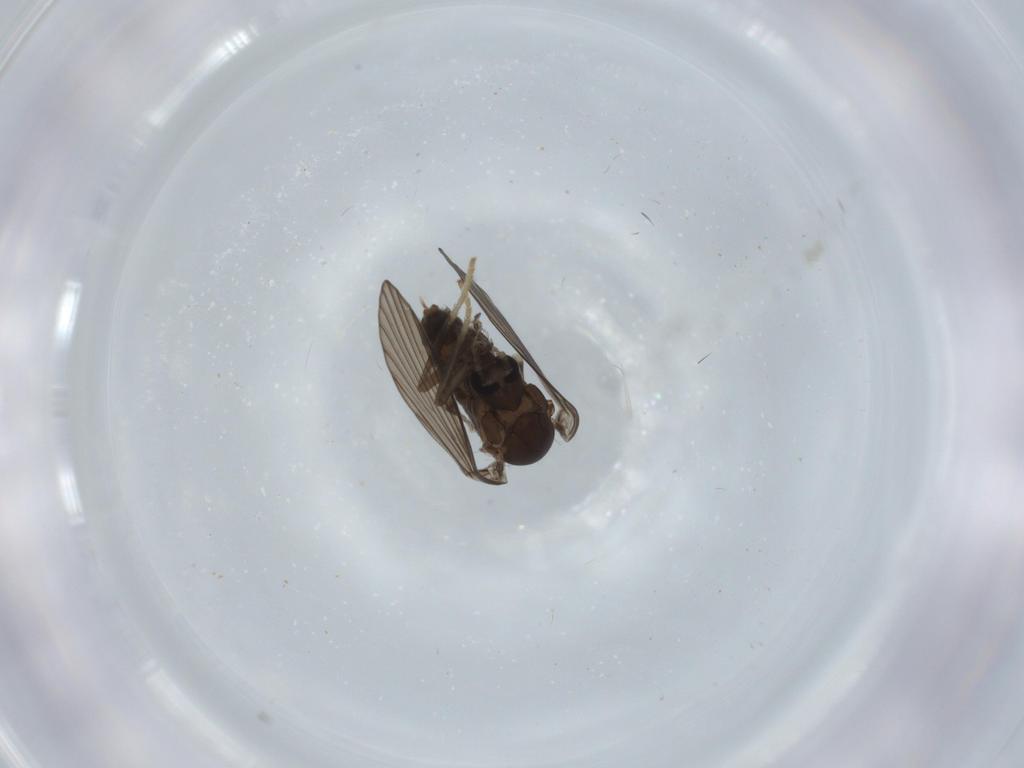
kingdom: Animalia
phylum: Arthropoda
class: Insecta
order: Diptera
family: Psychodidae
